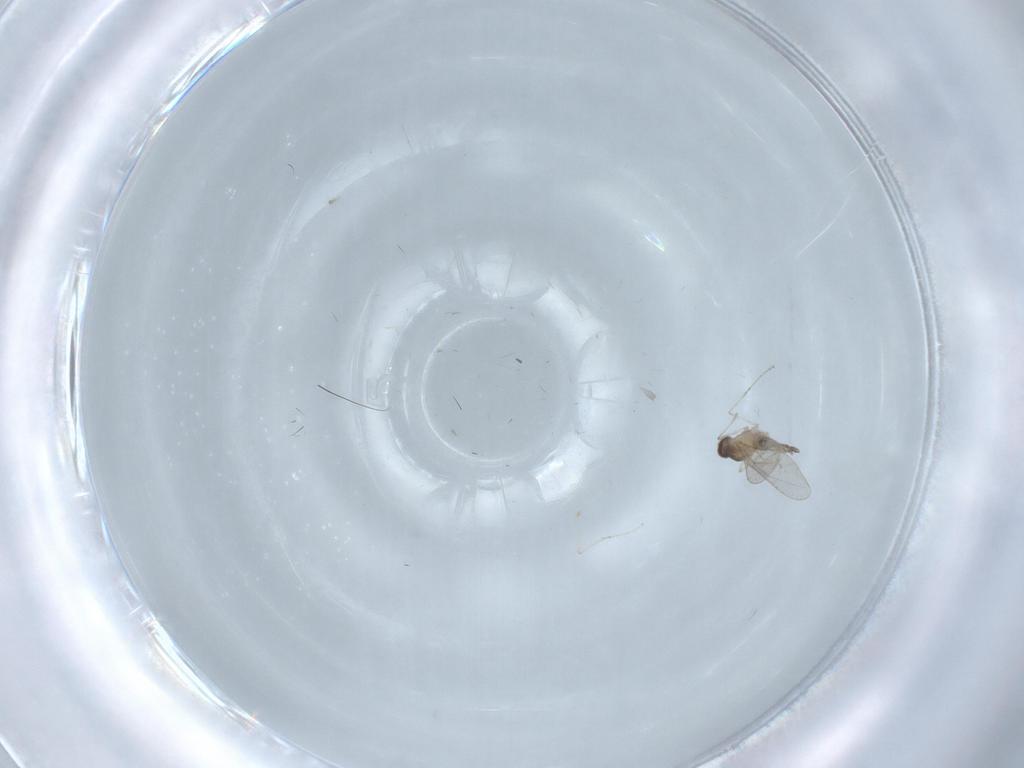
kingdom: Animalia
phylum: Arthropoda
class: Insecta
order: Diptera
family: Cecidomyiidae
